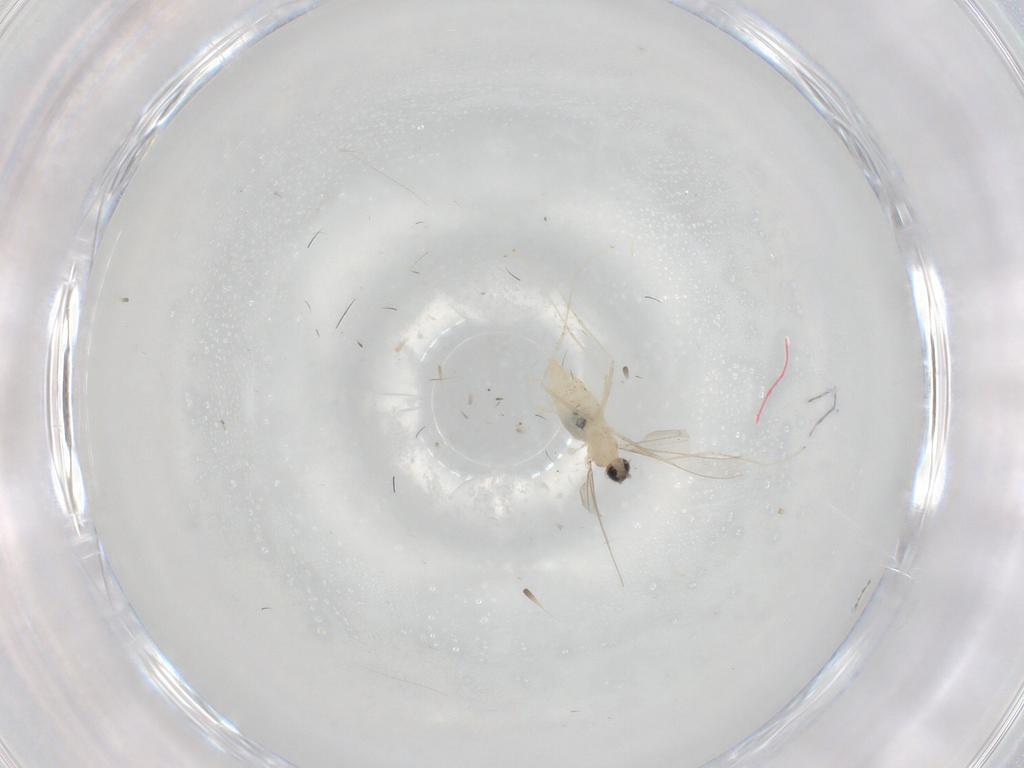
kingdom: Animalia
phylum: Arthropoda
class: Insecta
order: Diptera
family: Cecidomyiidae
